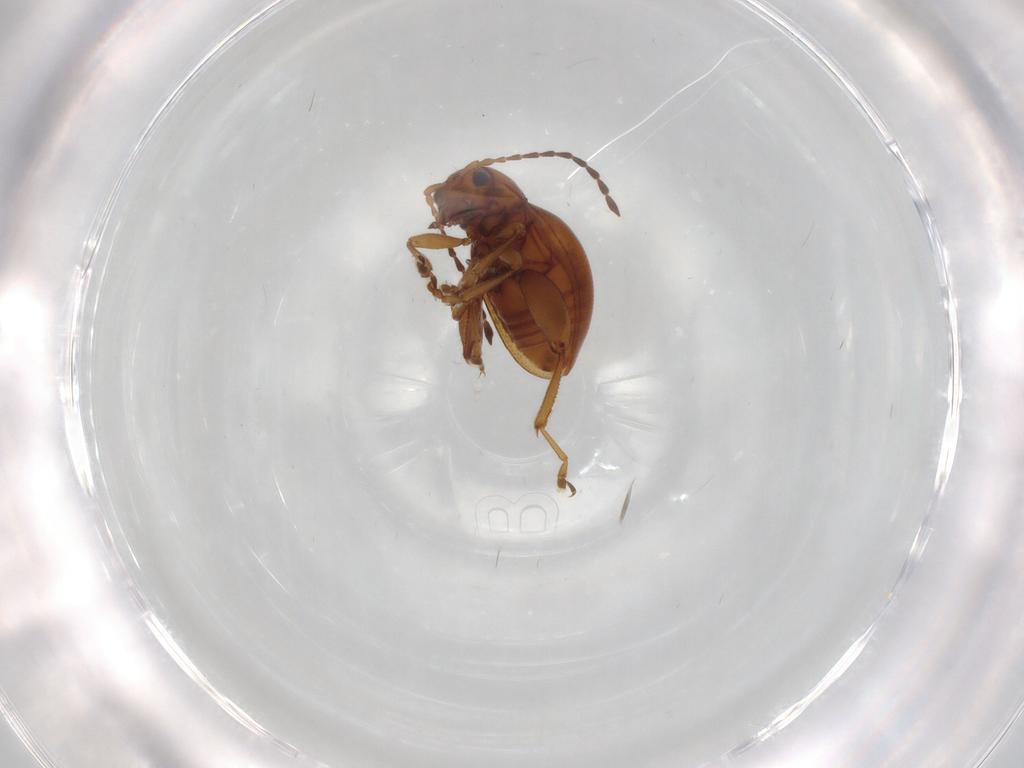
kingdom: Animalia
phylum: Arthropoda
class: Insecta
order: Coleoptera
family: Chrysomelidae
